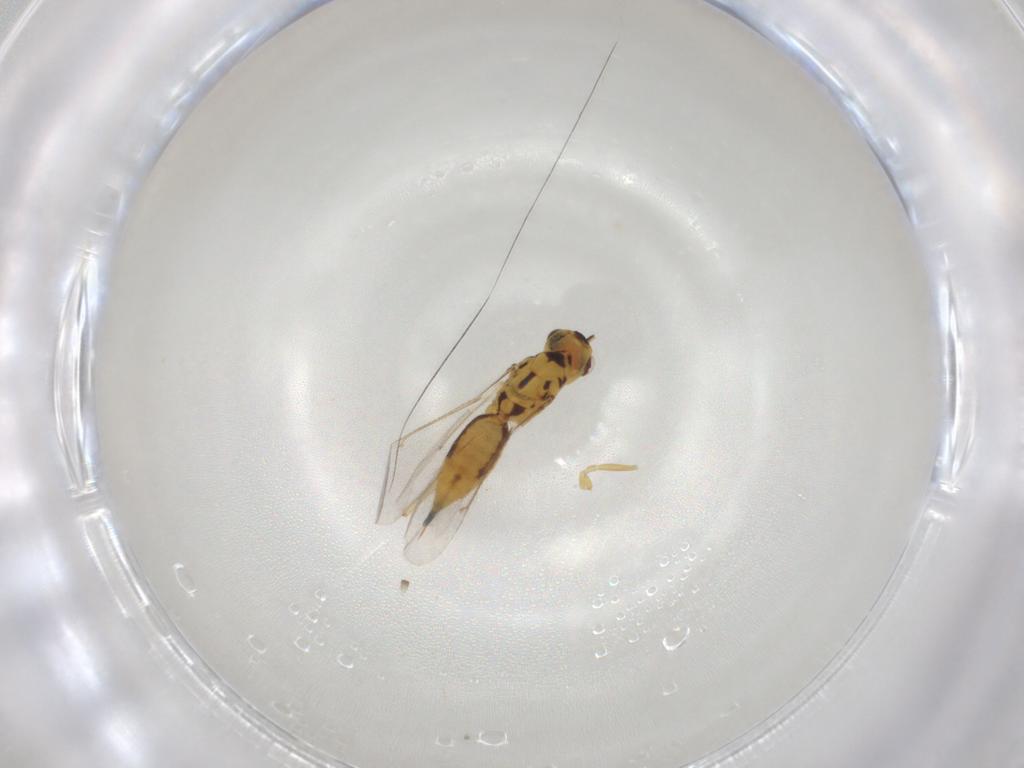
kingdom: Animalia
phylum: Arthropoda
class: Insecta
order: Hymenoptera
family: Eulophidae
